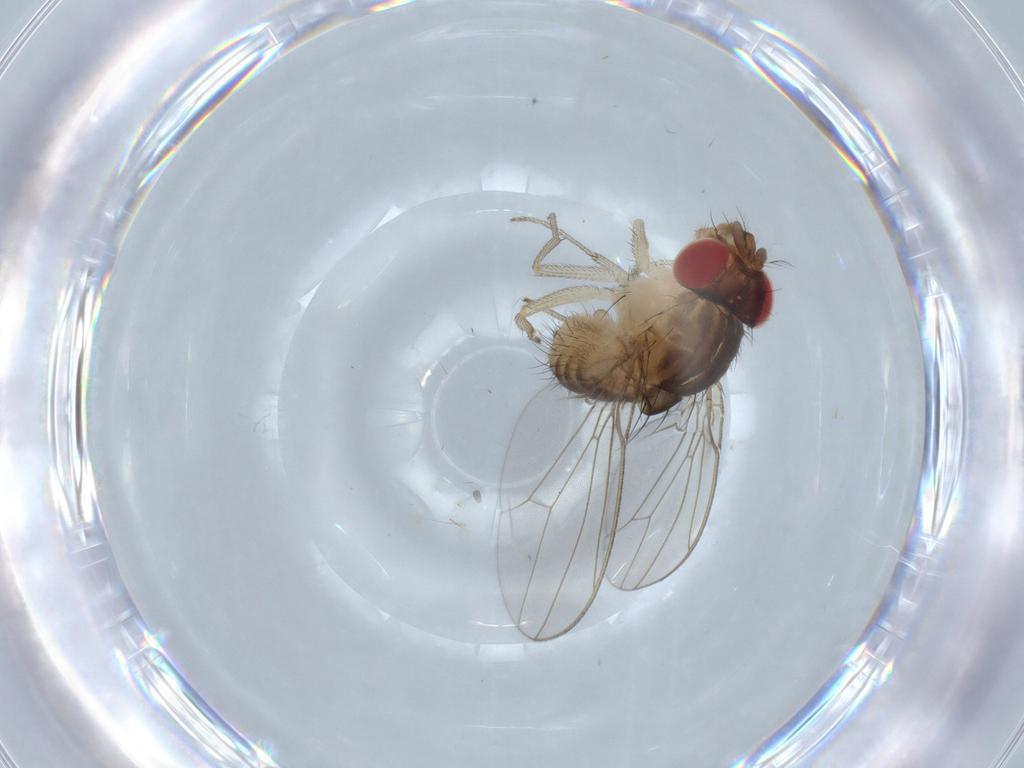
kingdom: Animalia
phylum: Arthropoda
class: Insecta
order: Diptera
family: Drosophilidae
